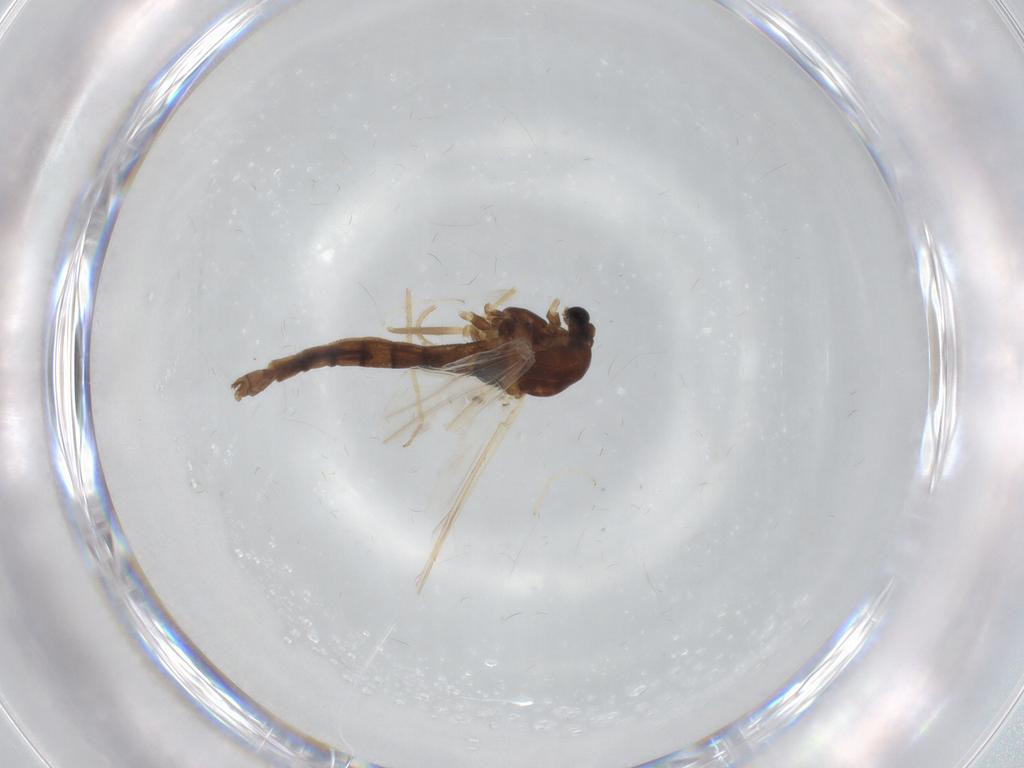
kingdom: Animalia
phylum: Arthropoda
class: Insecta
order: Diptera
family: Chironomidae
